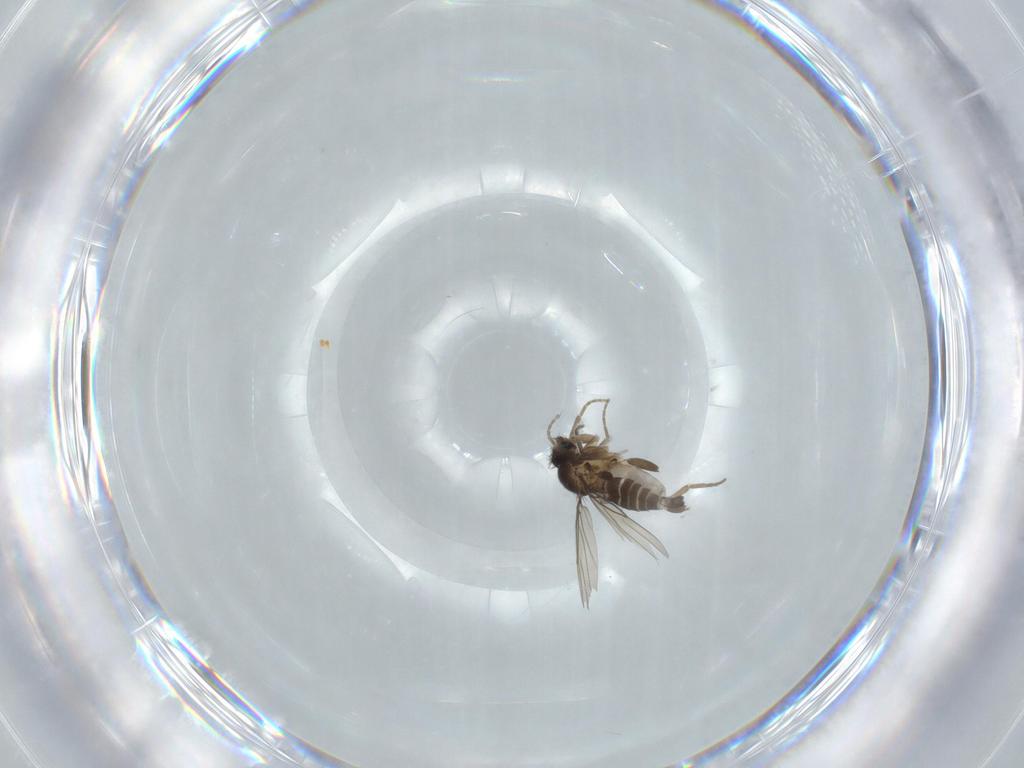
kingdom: Animalia
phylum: Arthropoda
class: Insecta
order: Diptera
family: Phoridae
